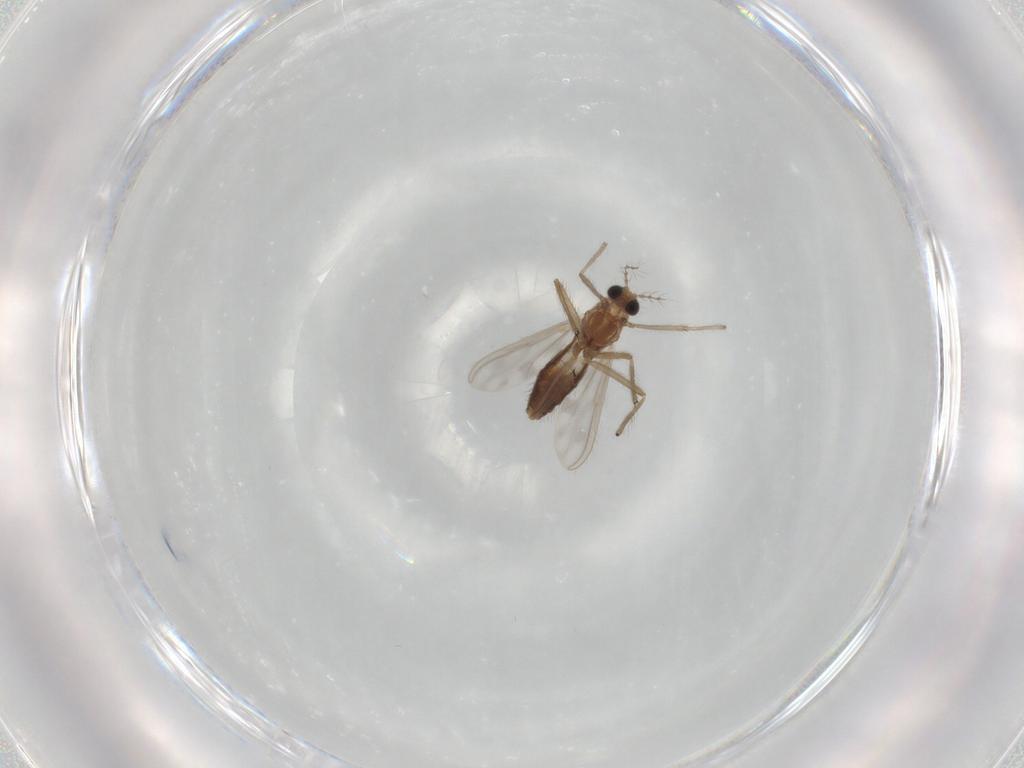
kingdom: Animalia
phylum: Arthropoda
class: Insecta
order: Diptera
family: Chironomidae
